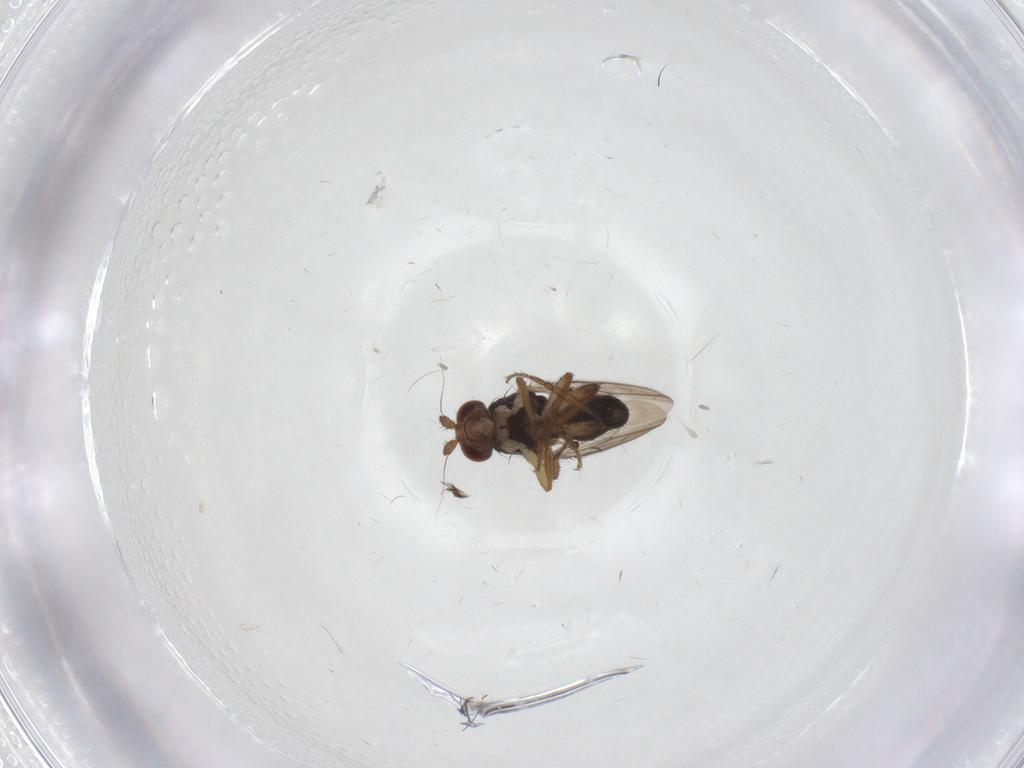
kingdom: Animalia
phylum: Arthropoda
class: Insecta
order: Diptera
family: Sphaeroceridae
